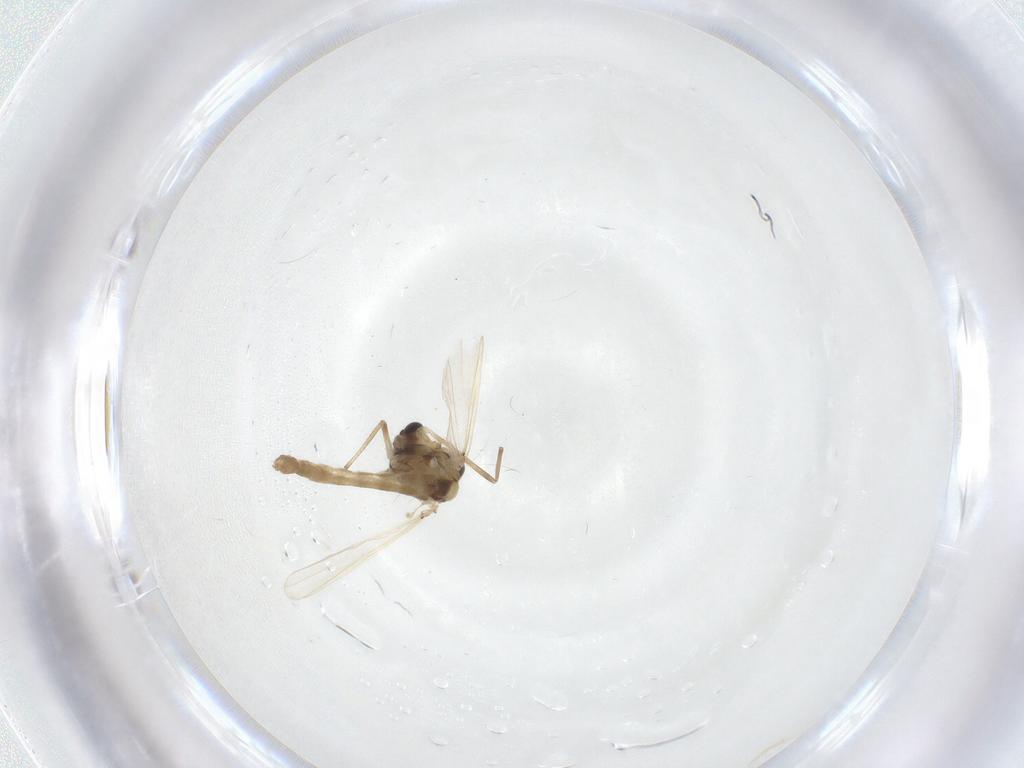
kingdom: Animalia
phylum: Arthropoda
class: Insecta
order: Diptera
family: Chironomidae
